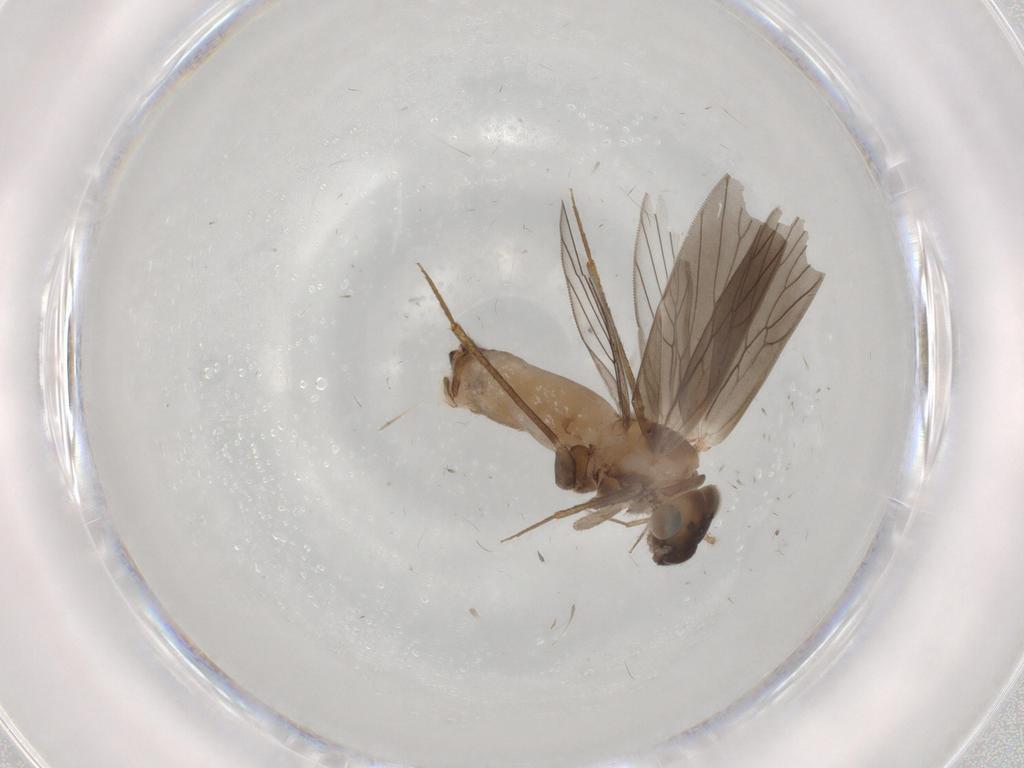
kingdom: Animalia
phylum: Arthropoda
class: Insecta
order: Psocodea
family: Lepidopsocidae
